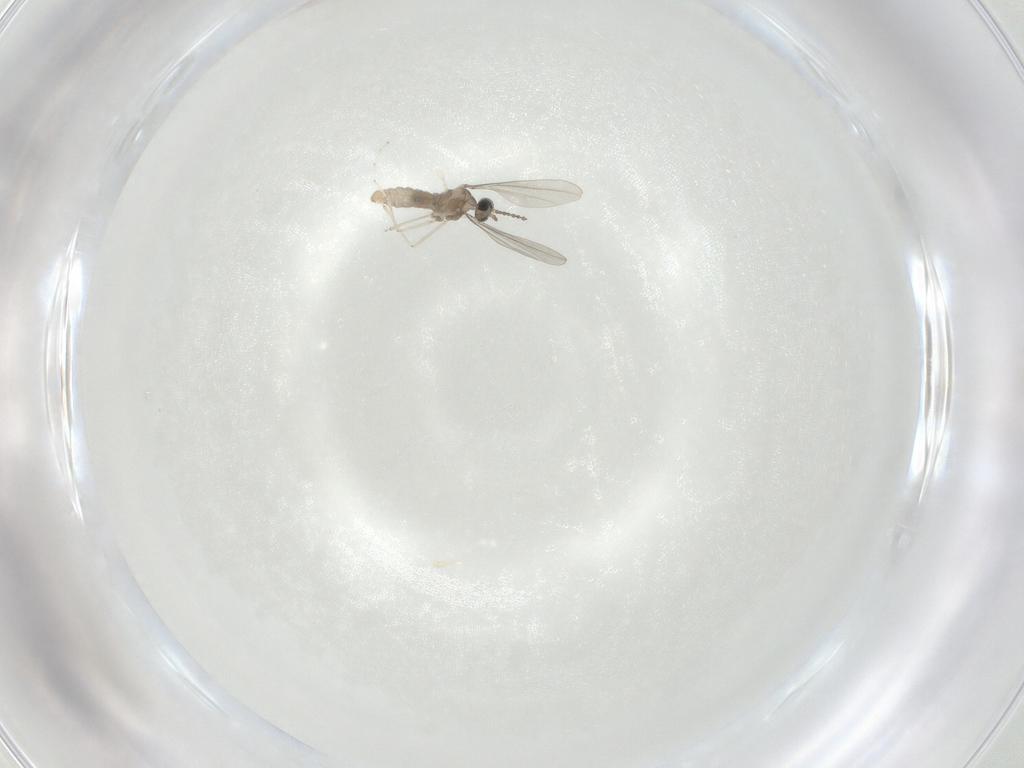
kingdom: Animalia
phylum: Arthropoda
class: Insecta
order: Diptera
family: Cecidomyiidae
